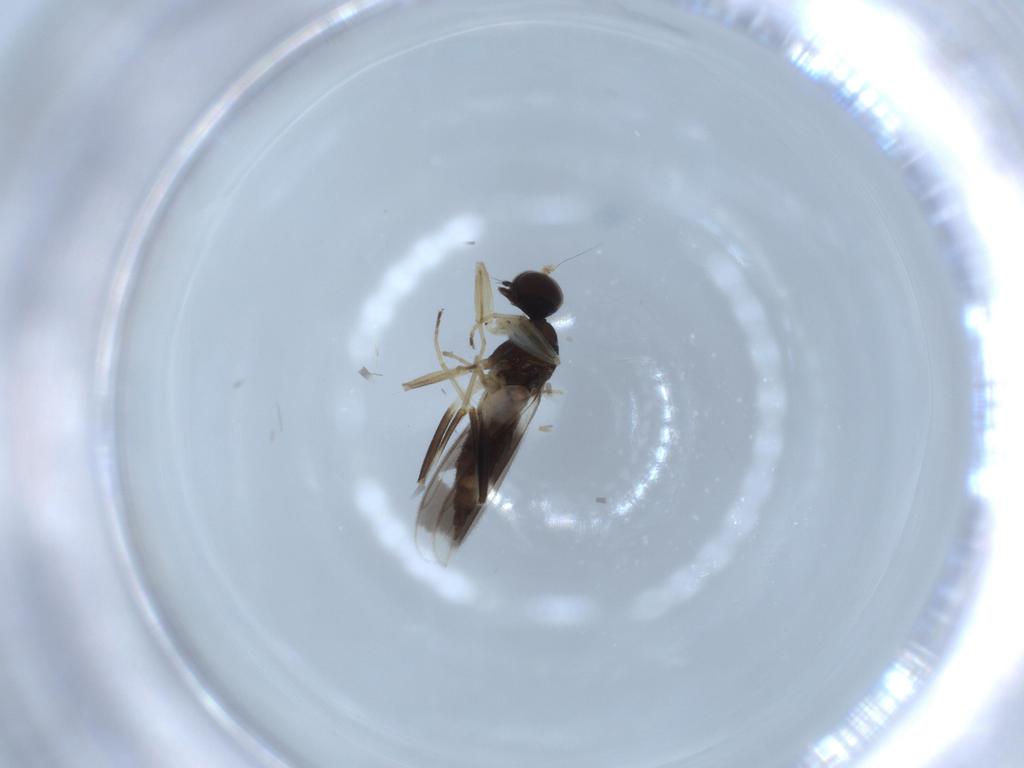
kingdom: Animalia
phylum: Arthropoda
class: Insecta
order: Diptera
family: Hybotidae
